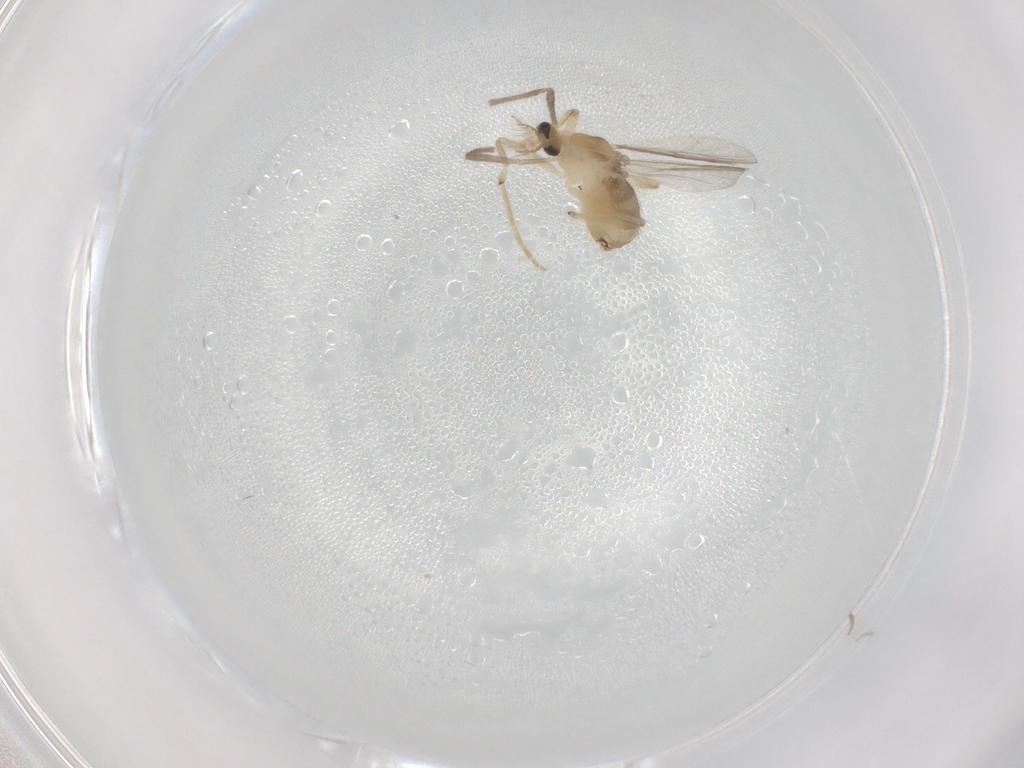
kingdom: Animalia
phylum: Arthropoda
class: Insecta
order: Diptera
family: Chironomidae
